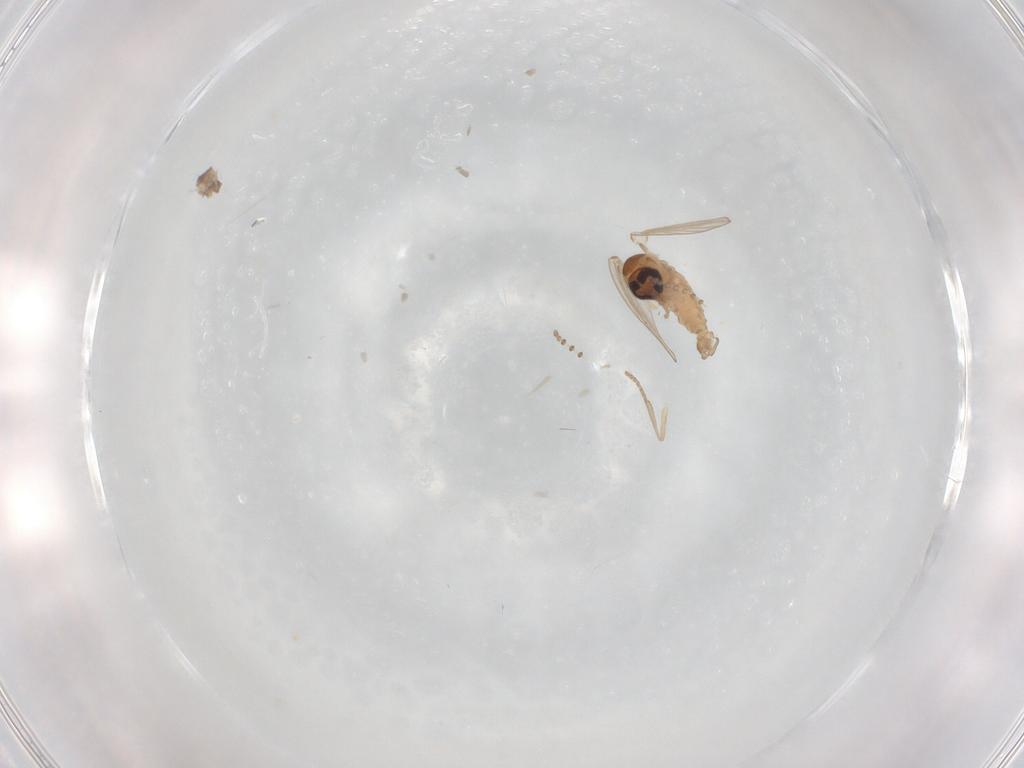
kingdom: Animalia
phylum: Arthropoda
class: Insecta
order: Diptera
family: Psychodidae
